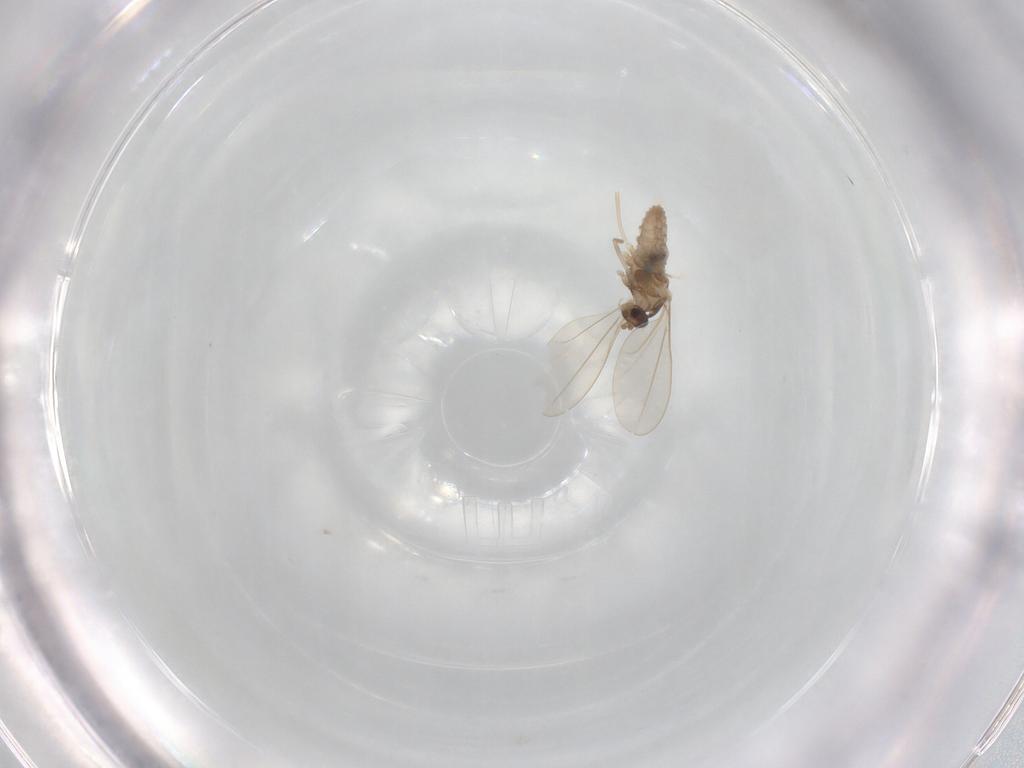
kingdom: Animalia
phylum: Arthropoda
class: Insecta
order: Diptera
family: Cecidomyiidae
